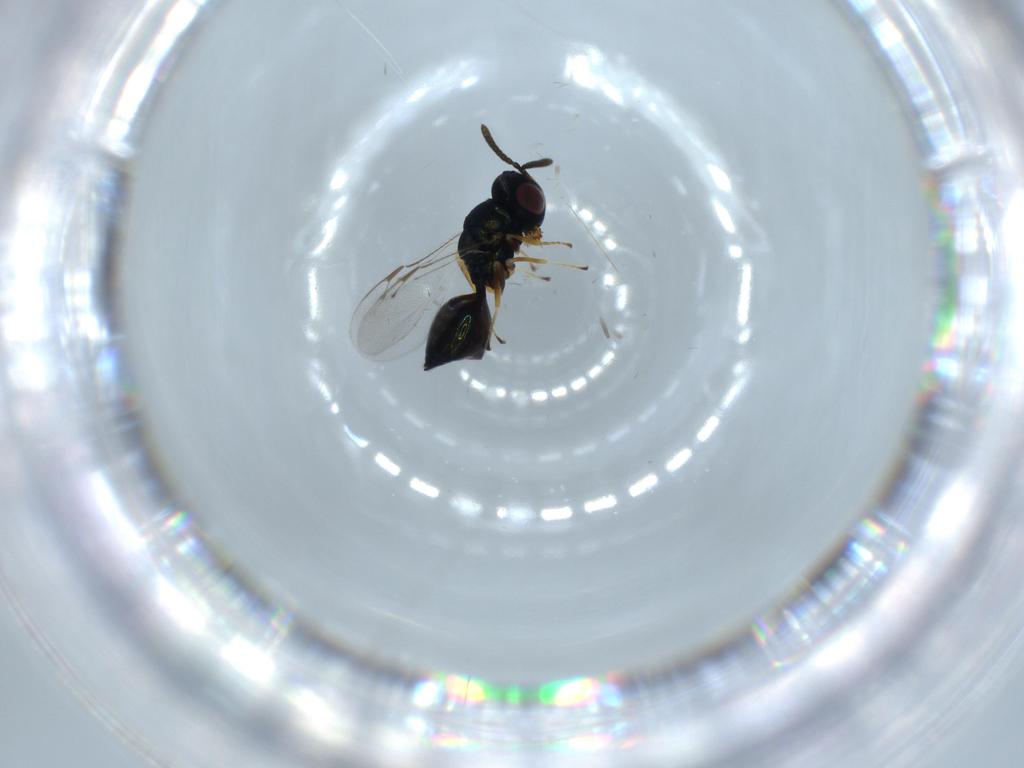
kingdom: Animalia
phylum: Arthropoda
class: Insecta
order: Hymenoptera
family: Pteromalidae
